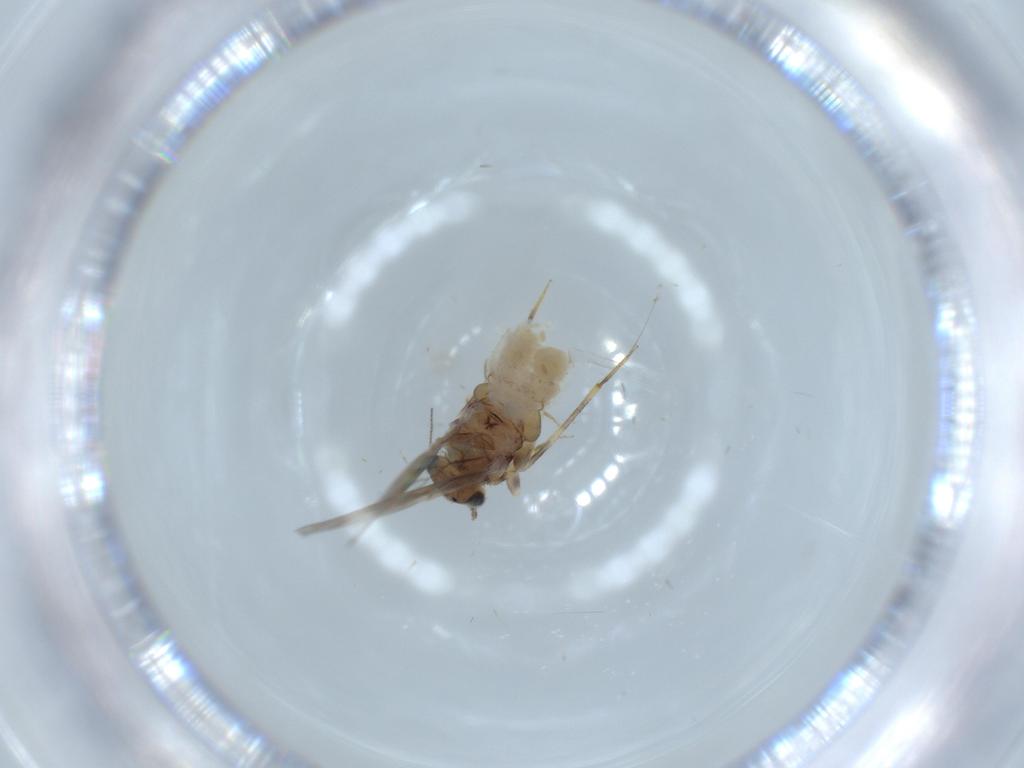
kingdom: Animalia
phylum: Arthropoda
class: Insecta
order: Psocodea
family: Lepidopsocidae
